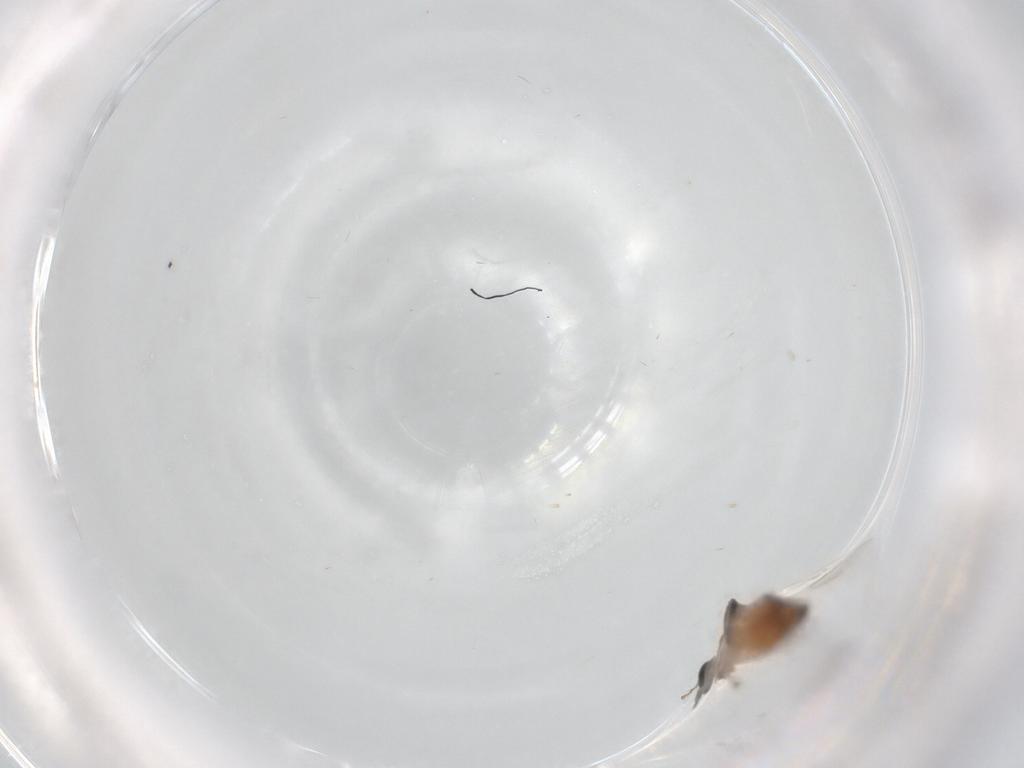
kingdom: Animalia
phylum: Arthropoda
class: Insecta
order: Diptera
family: Ceratopogonidae
